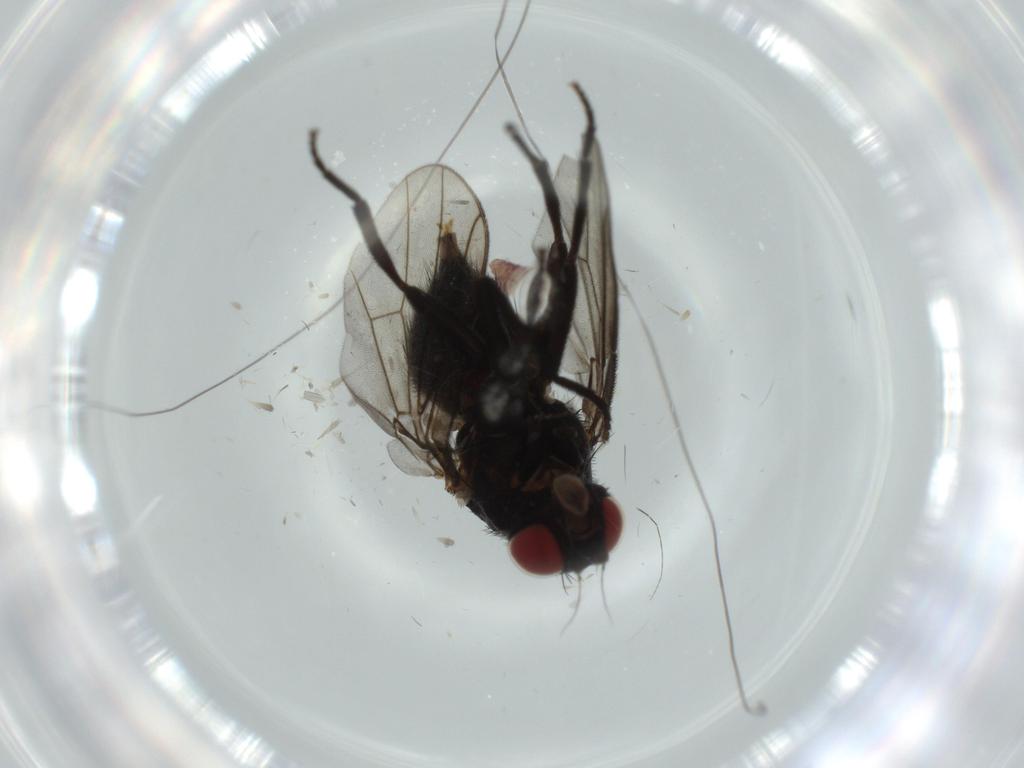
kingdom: Animalia
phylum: Arthropoda
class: Insecta
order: Diptera
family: Agromyzidae
